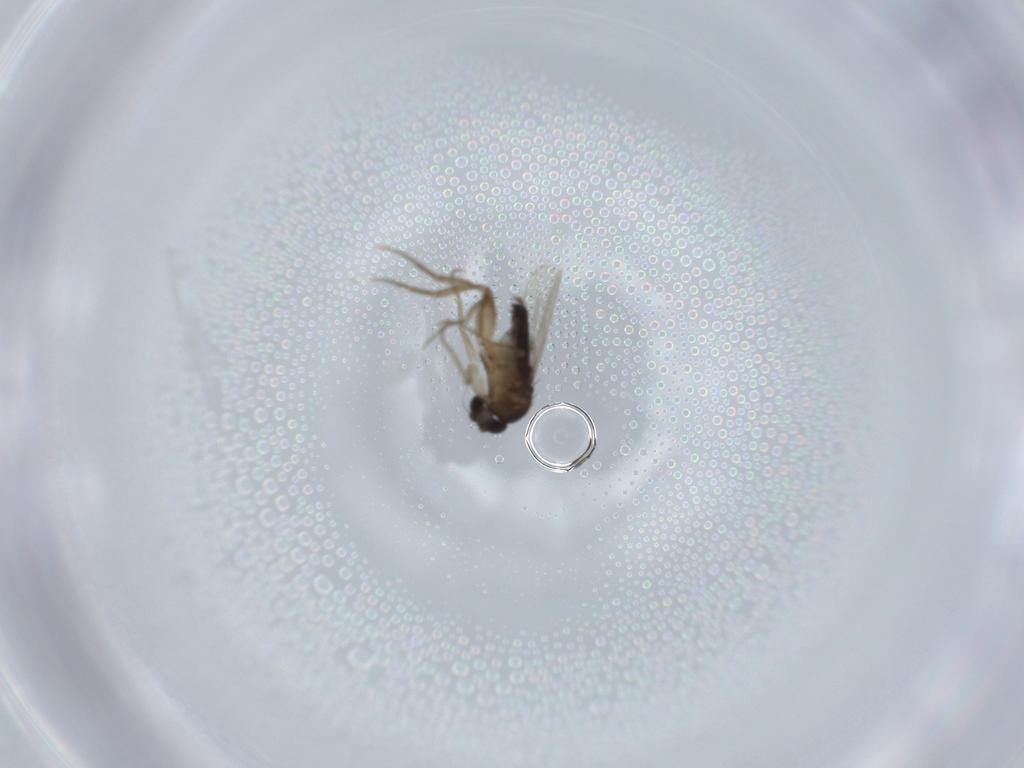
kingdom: Animalia
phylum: Arthropoda
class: Insecta
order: Diptera
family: Phoridae
